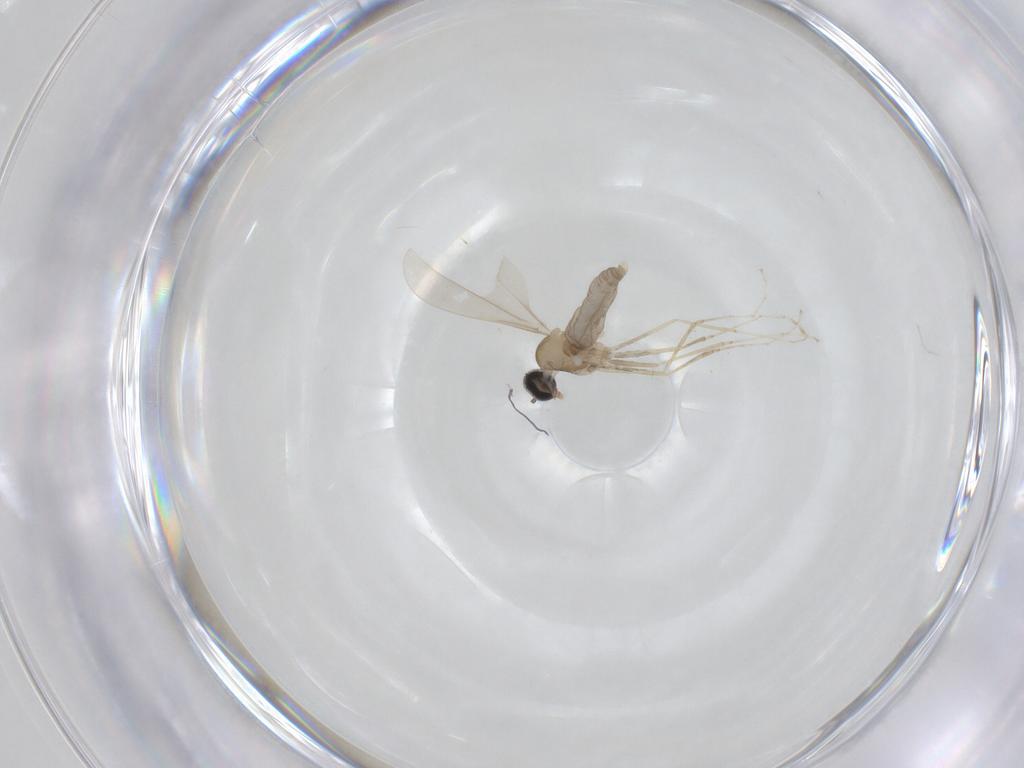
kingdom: Animalia
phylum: Arthropoda
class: Insecta
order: Diptera
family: Cecidomyiidae
